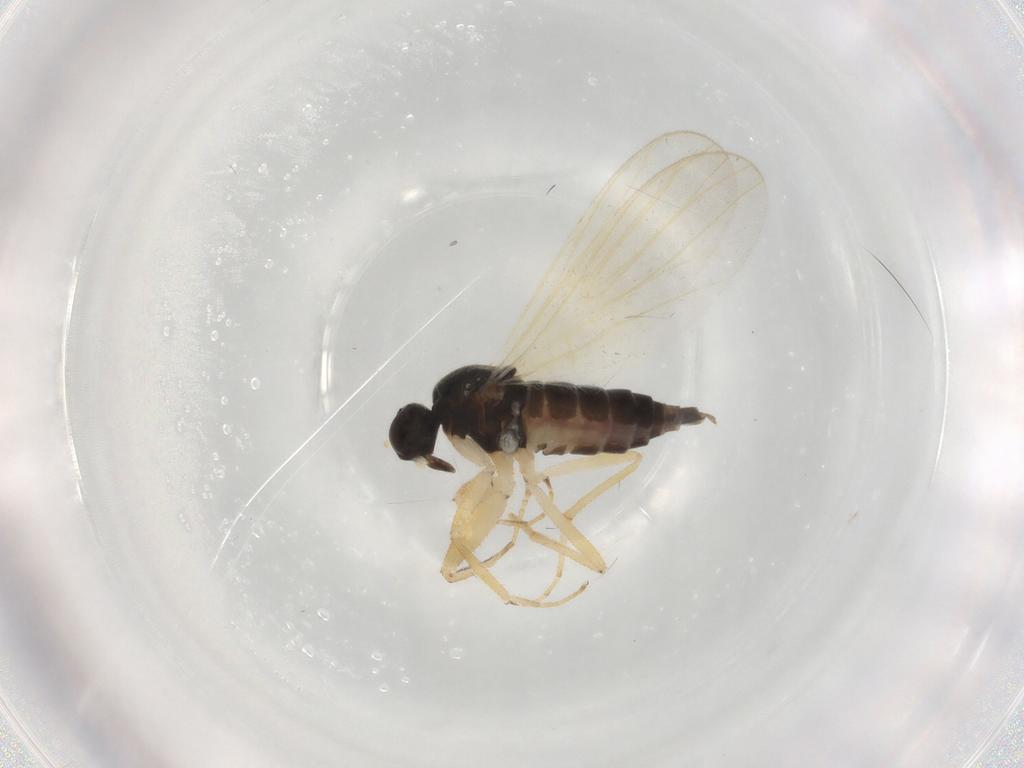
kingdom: Animalia
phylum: Arthropoda
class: Insecta
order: Diptera
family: Hybotidae
